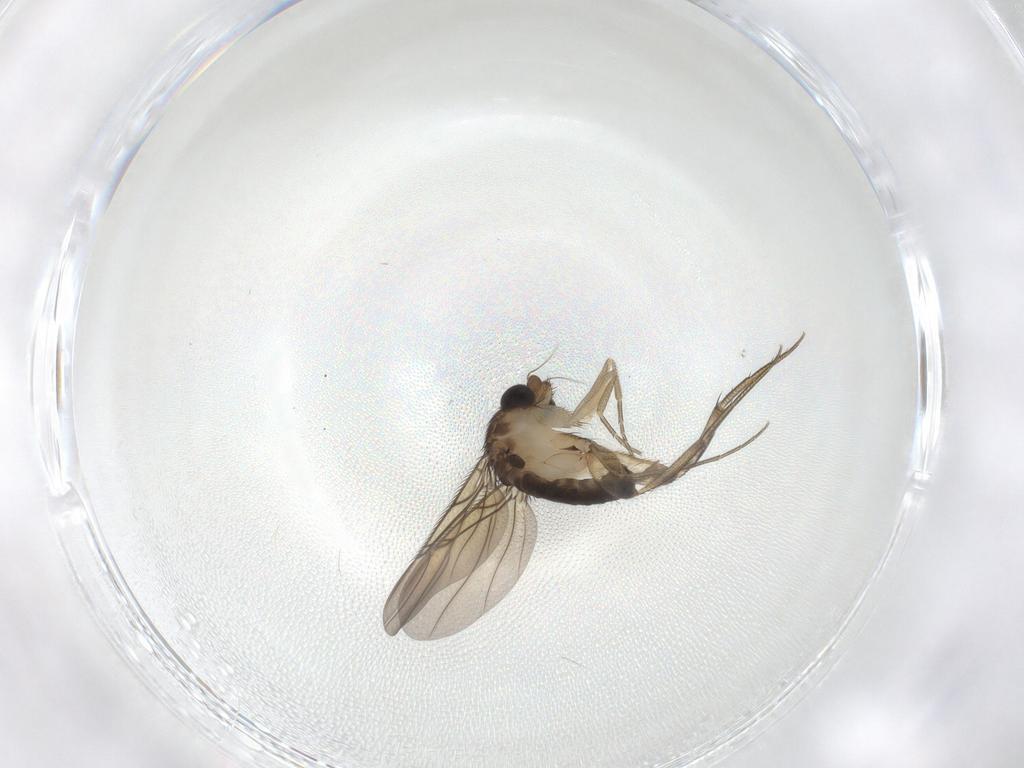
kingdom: Animalia
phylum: Arthropoda
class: Insecta
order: Diptera
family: Phoridae
